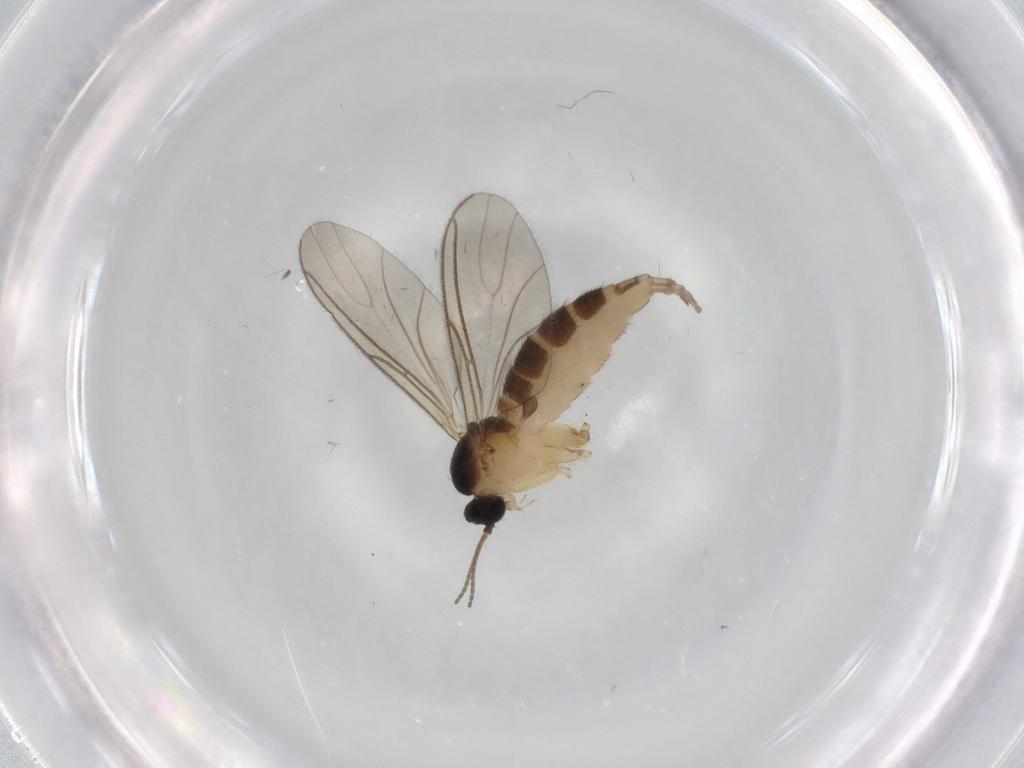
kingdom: Animalia
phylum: Arthropoda
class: Insecta
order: Diptera
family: Sciaridae
